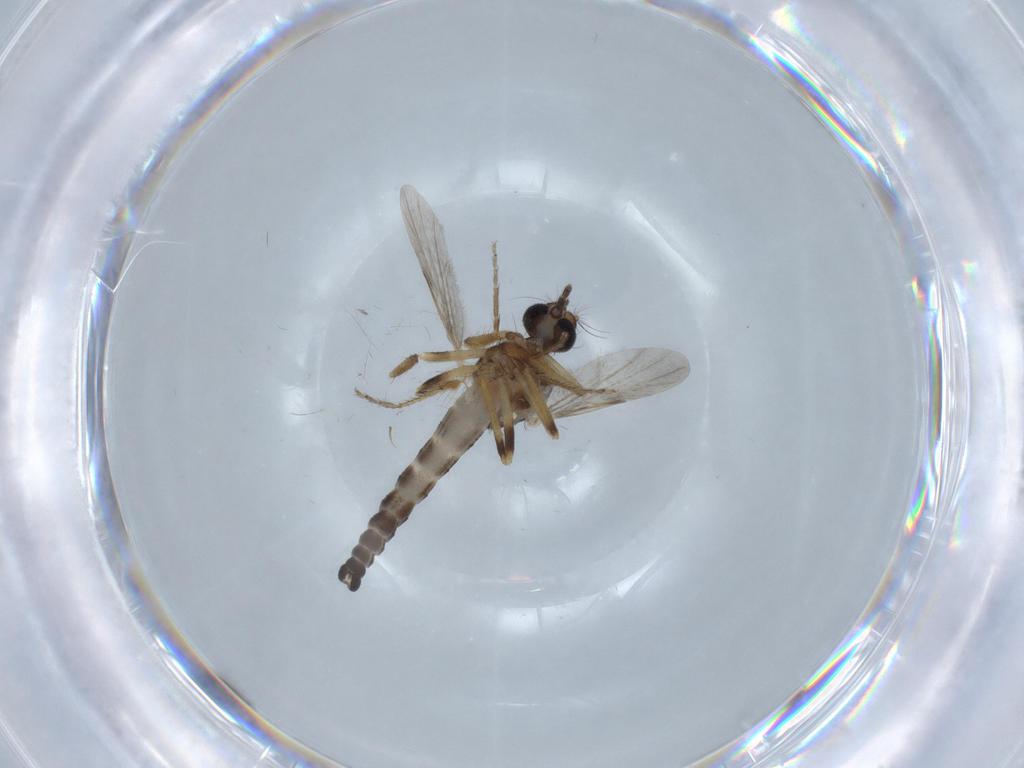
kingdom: Animalia
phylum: Arthropoda
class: Insecta
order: Diptera
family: Ceratopogonidae
